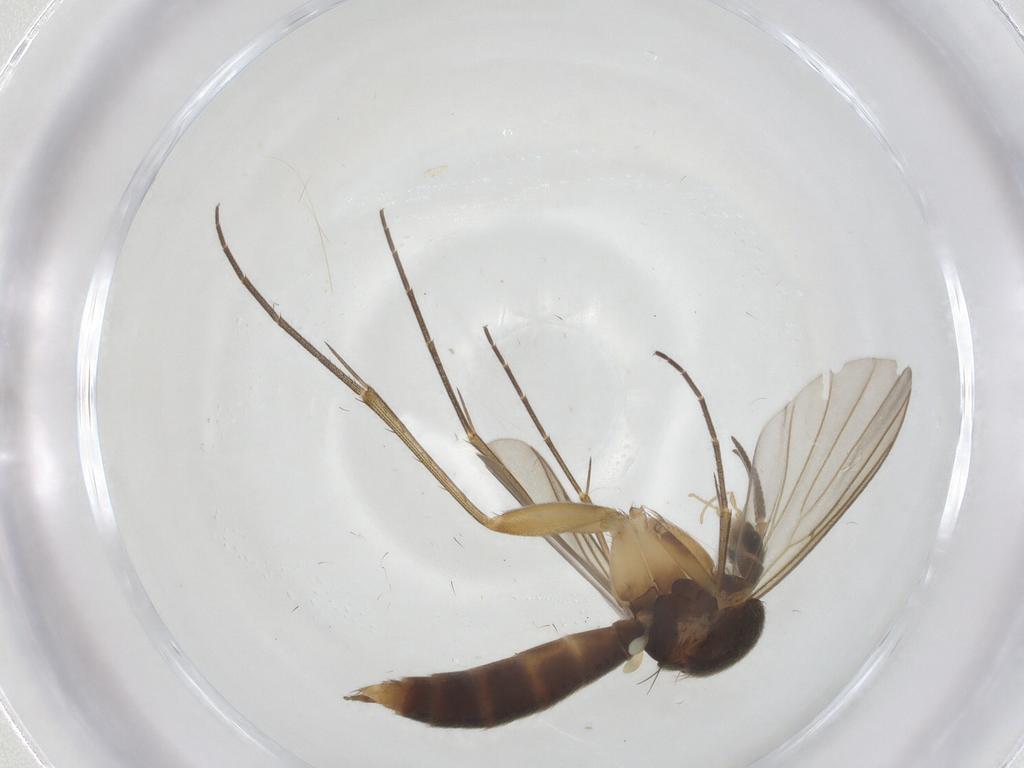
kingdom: Animalia
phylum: Arthropoda
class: Insecta
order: Diptera
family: Mycetophilidae
